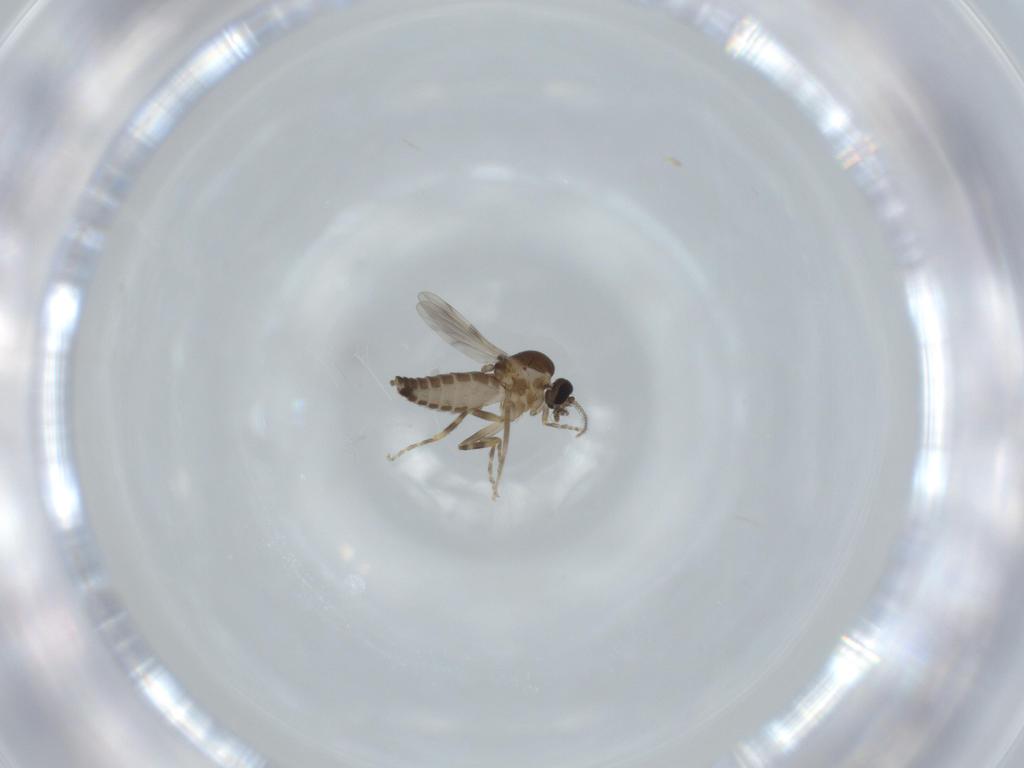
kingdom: Animalia
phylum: Arthropoda
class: Insecta
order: Diptera
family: Ceratopogonidae
